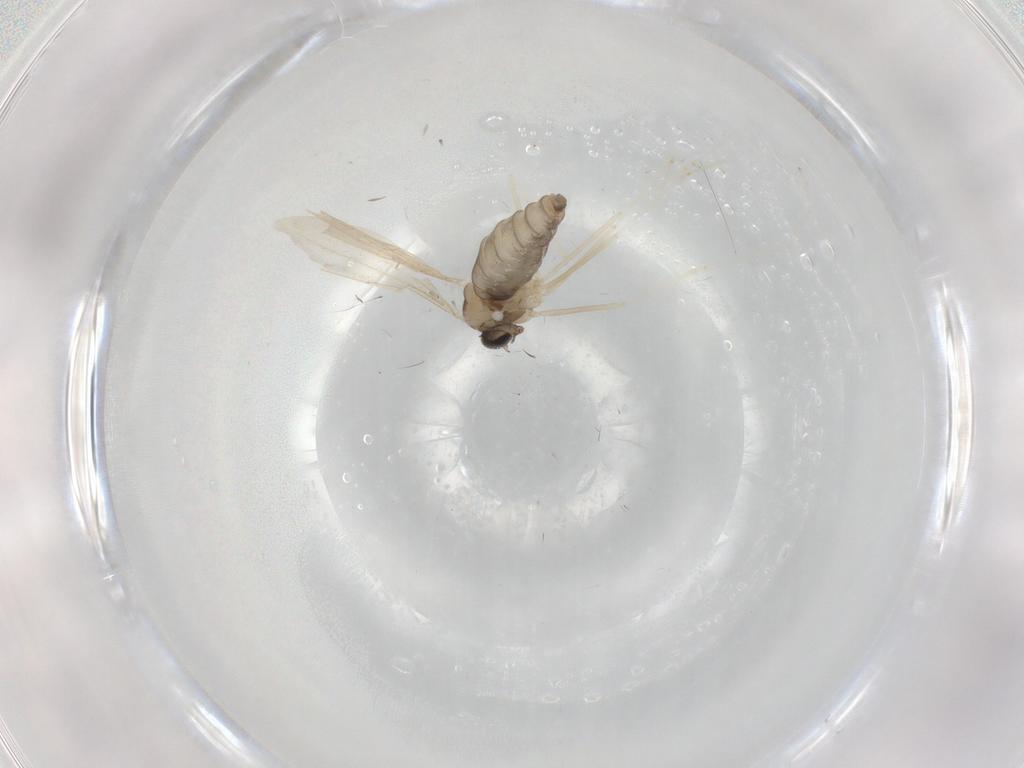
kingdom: Animalia
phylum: Arthropoda
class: Insecta
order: Diptera
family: Cecidomyiidae
